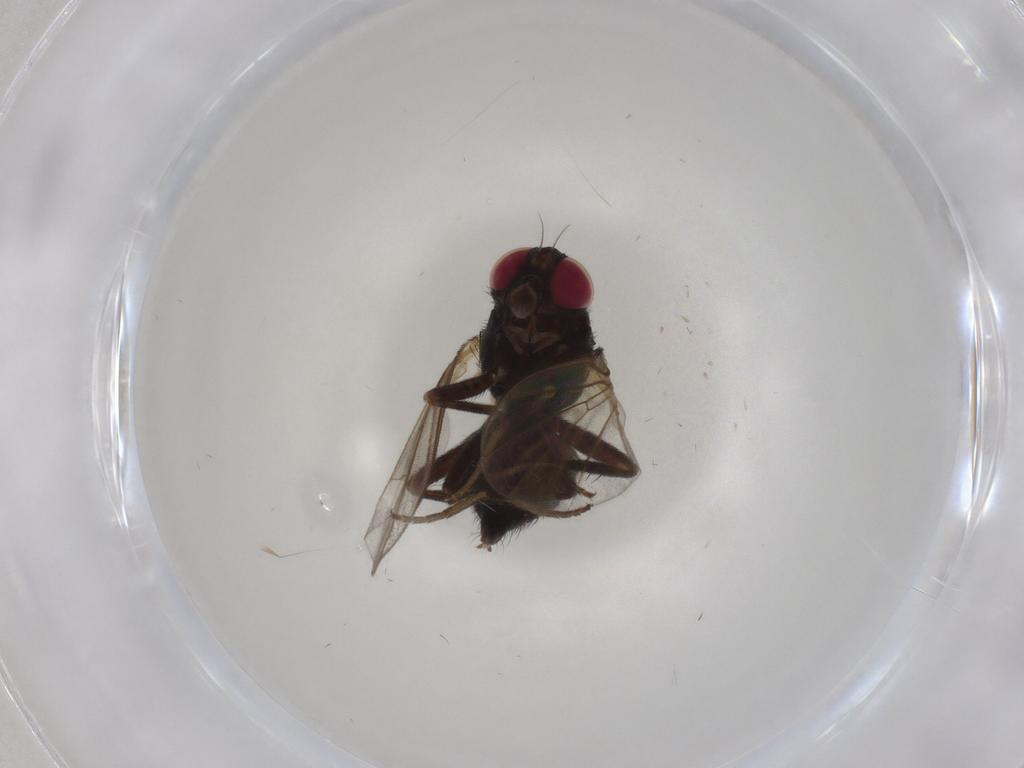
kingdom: Animalia
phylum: Arthropoda
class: Insecta
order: Diptera
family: Agromyzidae
